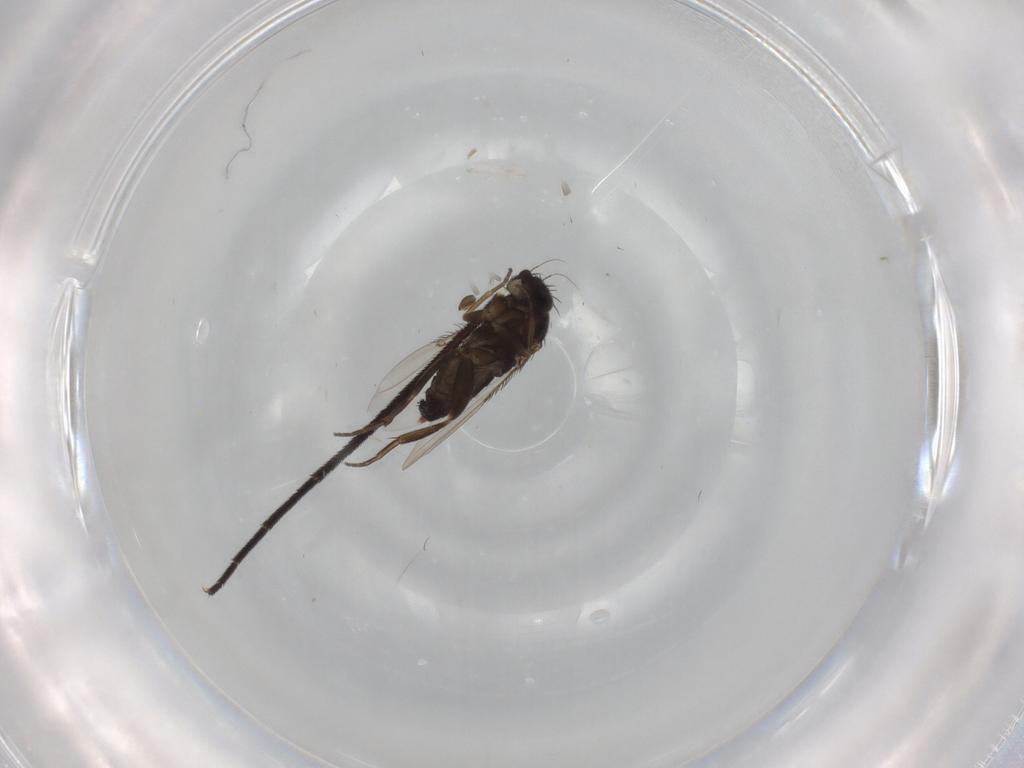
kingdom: Animalia
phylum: Arthropoda
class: Insecta
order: Diptera
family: Phoridae
